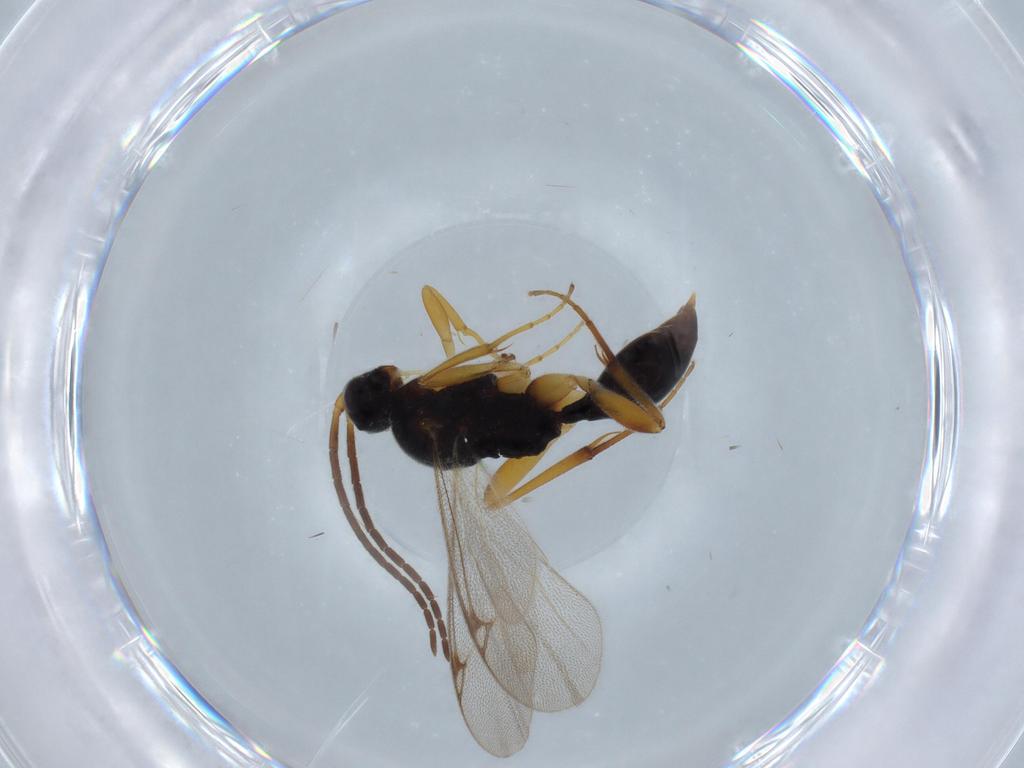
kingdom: Animalia
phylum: Arthropoda
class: Insecta
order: Hymenoptera
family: Proctotrupidae
